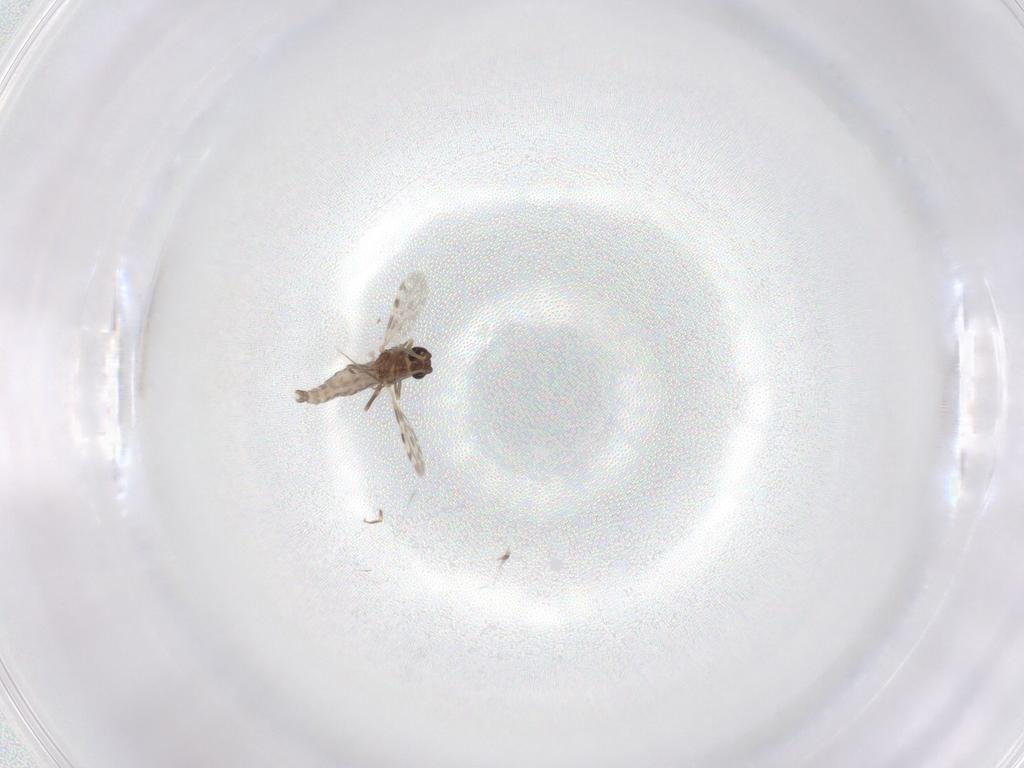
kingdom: Animalia
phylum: Arthropoda
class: Insecta
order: Diptera
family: Ceratopogonidae
